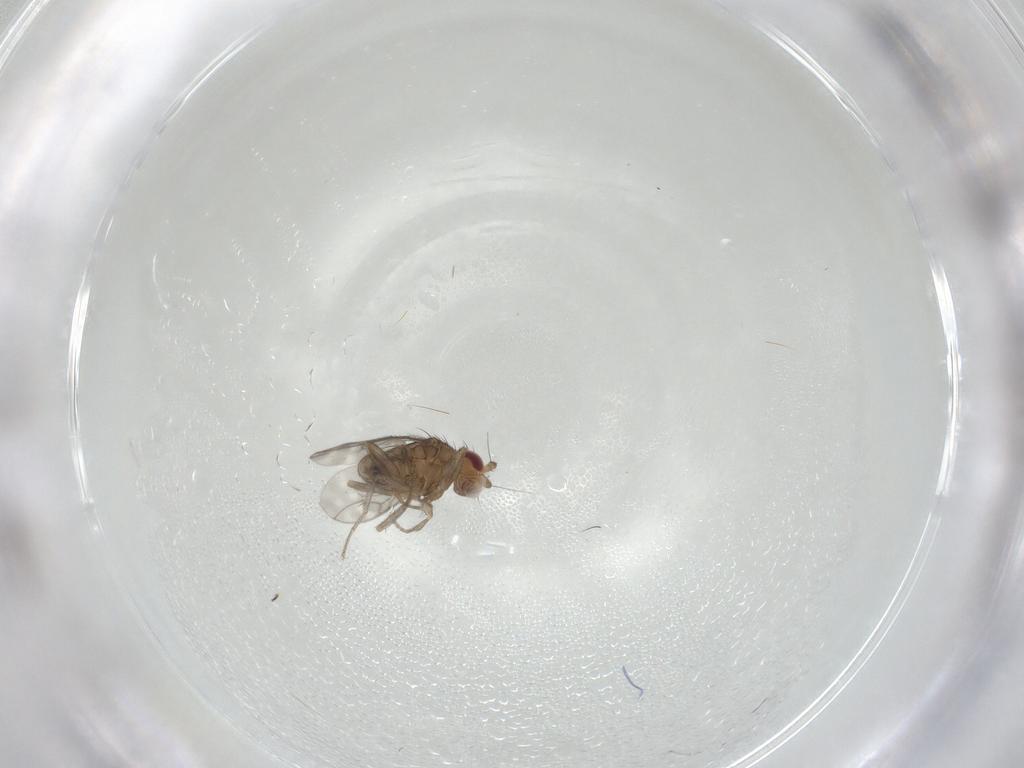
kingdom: Animalia
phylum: Arthropoda
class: Insecta
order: Diptera
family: Sphaeroceridae
